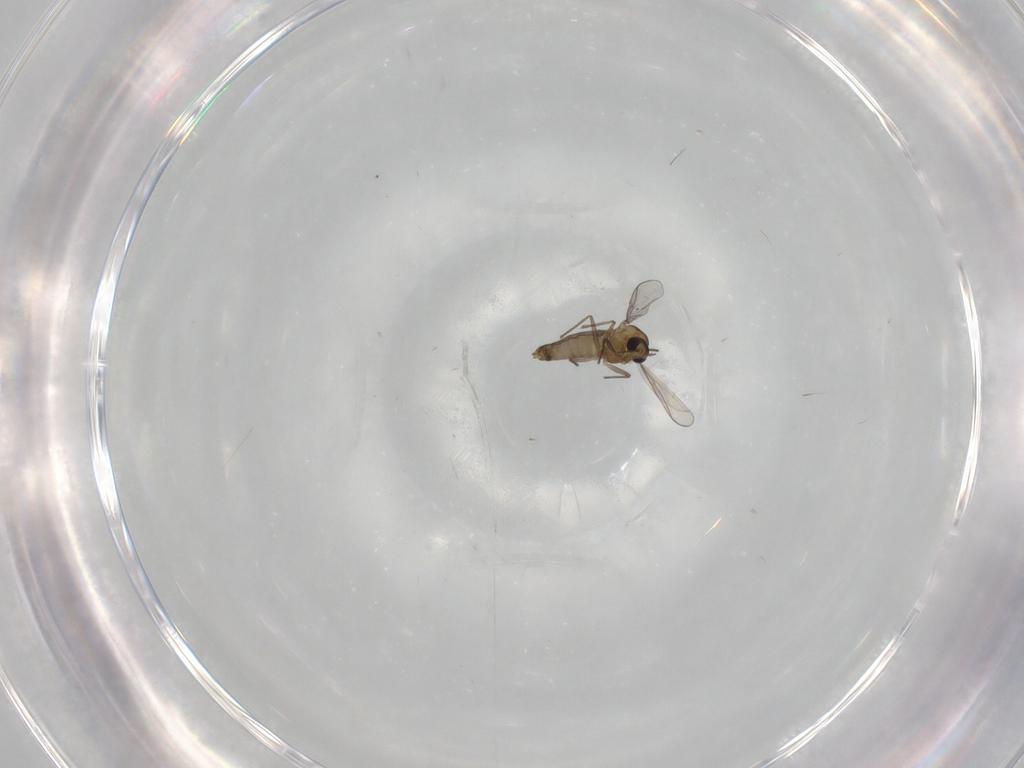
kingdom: Animalia
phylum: Arthropoda
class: Insecta
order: Diptera
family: Chironomidae
